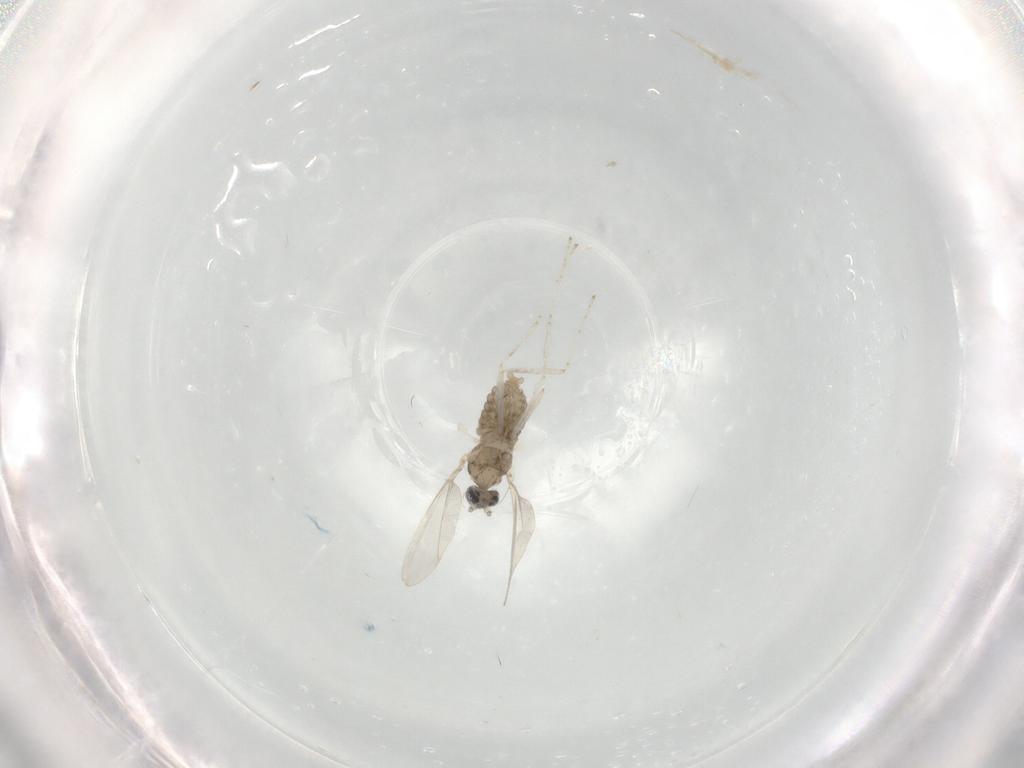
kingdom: Animalia
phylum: Arthropoda
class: Insecta
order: Diptera
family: Cecidomyiidae
